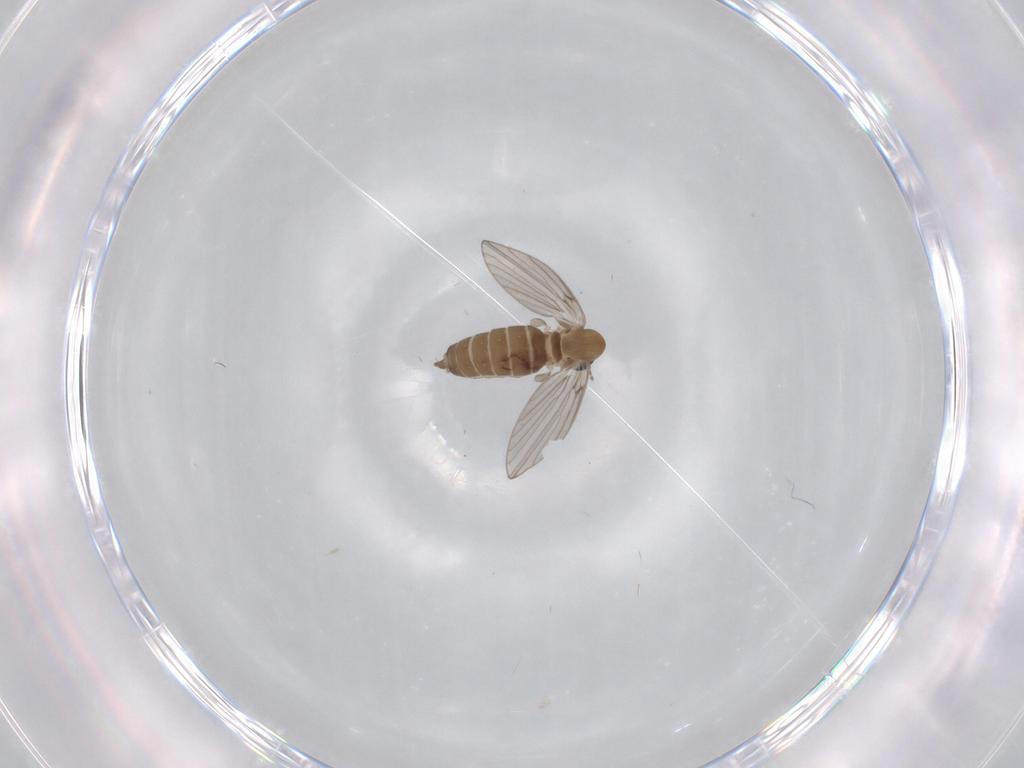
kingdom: Animalia
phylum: Arthropoda
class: Insecta
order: Diptera
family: Psychodidae
